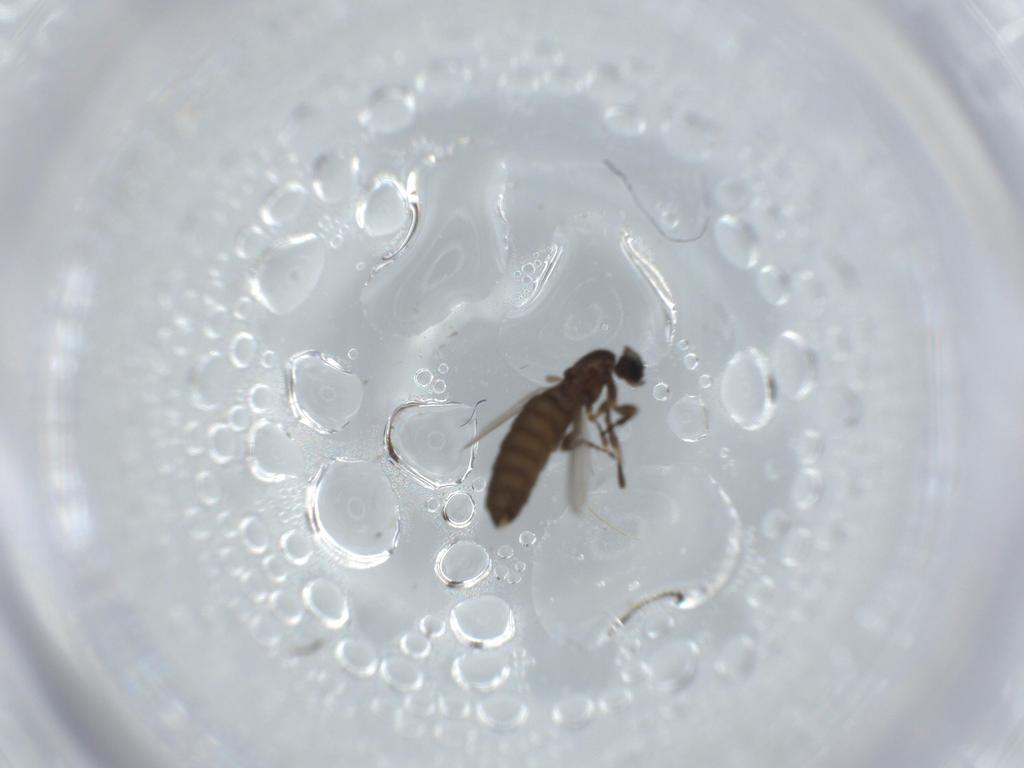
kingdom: Animalia
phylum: Arthropoda
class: Insecta
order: Diptera
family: Scatopsidae
